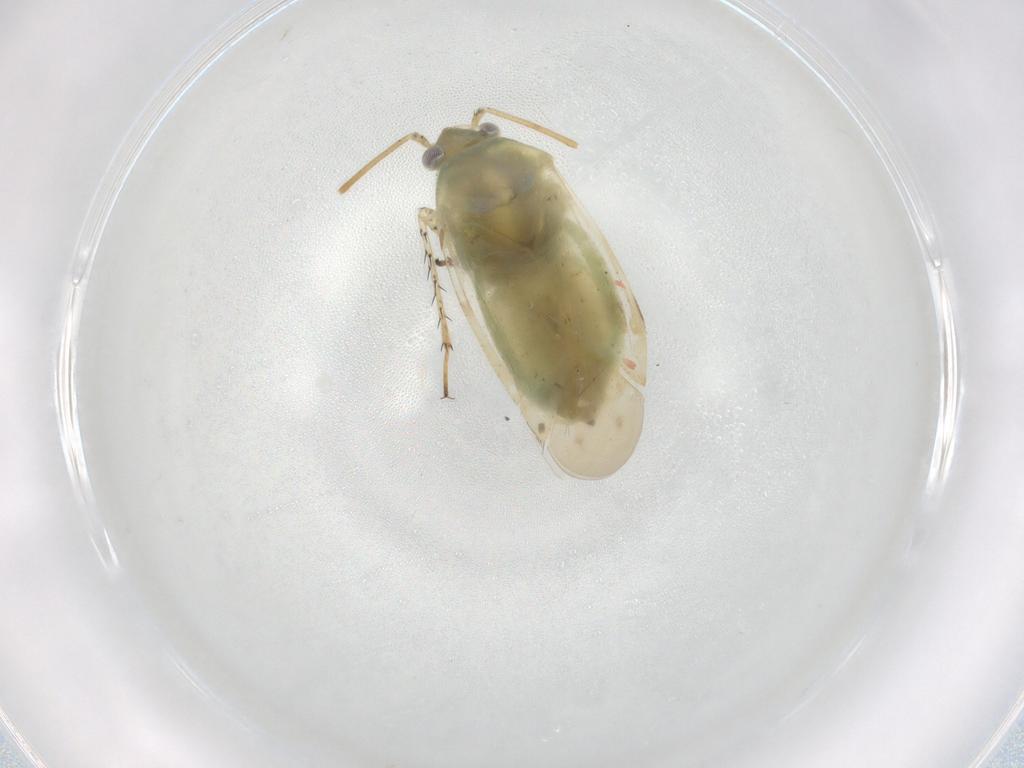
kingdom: Animalia
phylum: Arthropoda
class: Insecta
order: Hemiptera
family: Miridae
